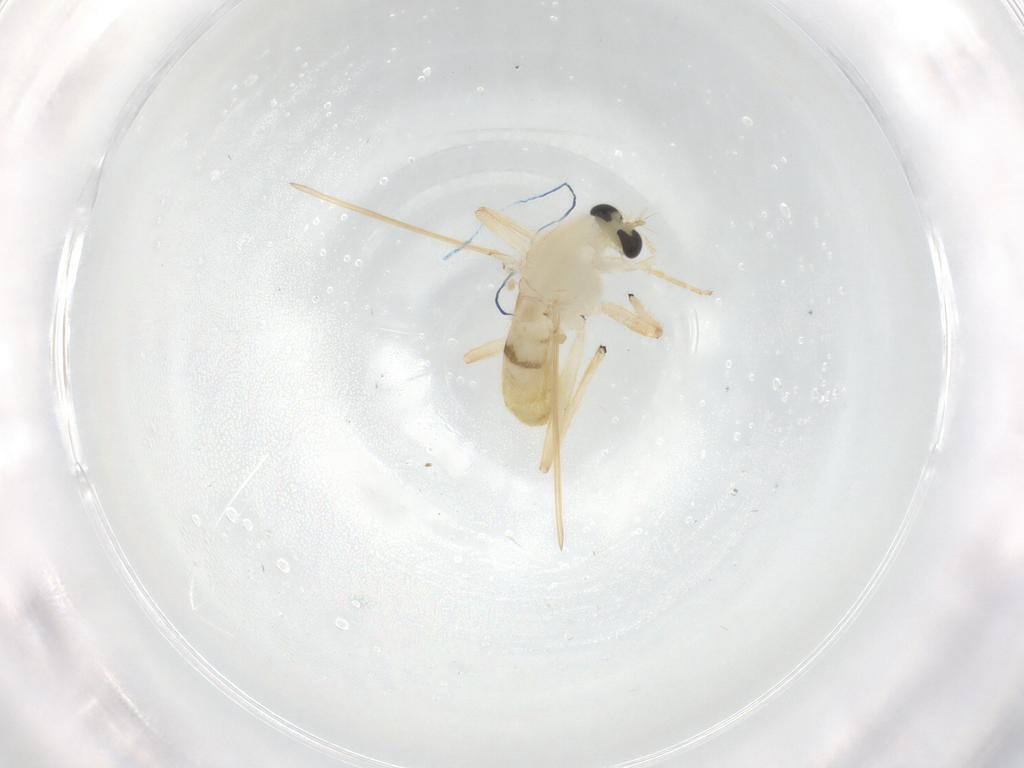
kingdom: Animalia
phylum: Arthropoda
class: Insecta
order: Diptera
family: Chironomidae
